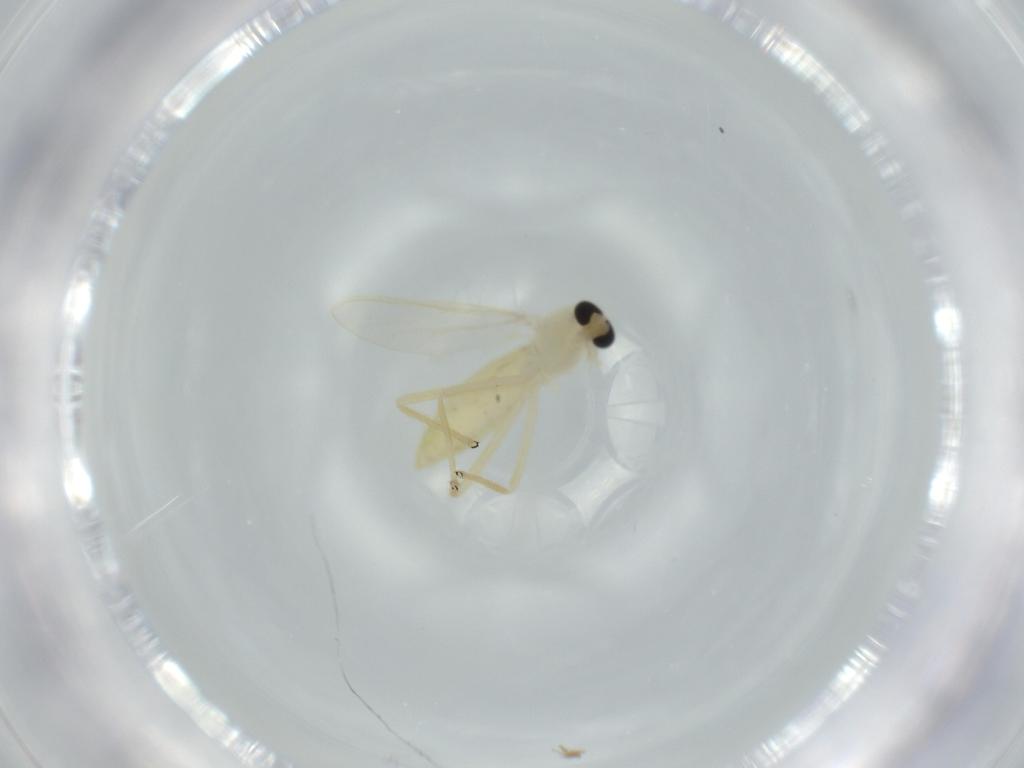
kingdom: Animalia
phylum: Arthropoda
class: Insecta
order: Diptera
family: Chironomidae
